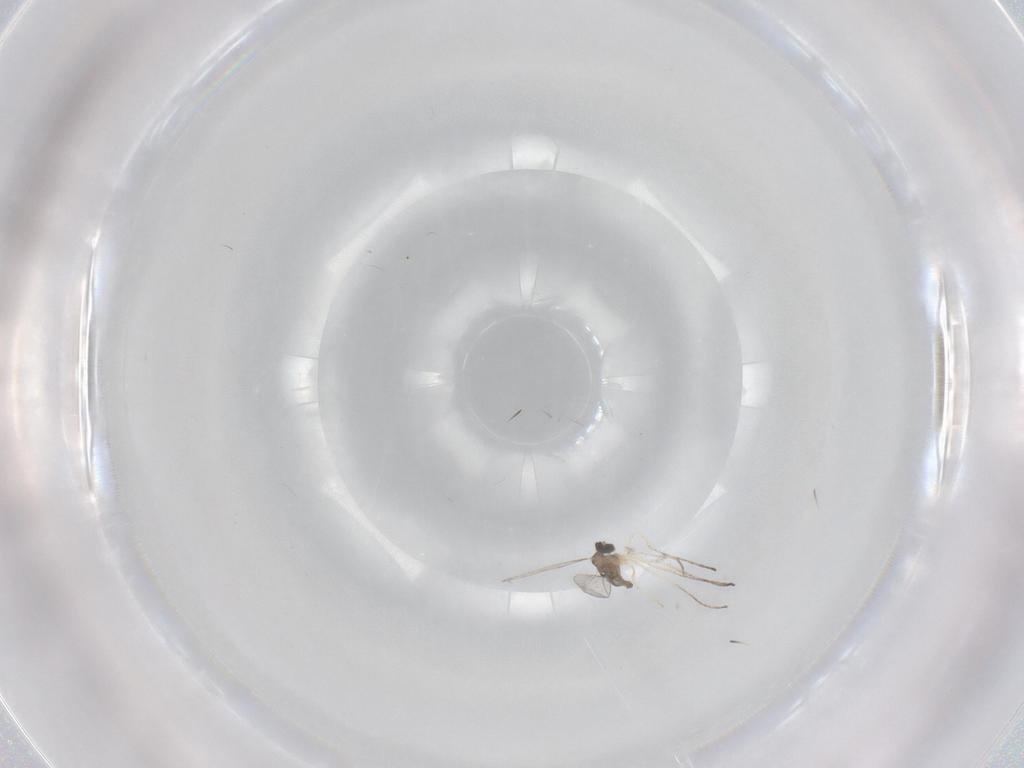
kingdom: Animalia
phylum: Arthropoda
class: Insecta
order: Diptera
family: Cecidomyiidae
